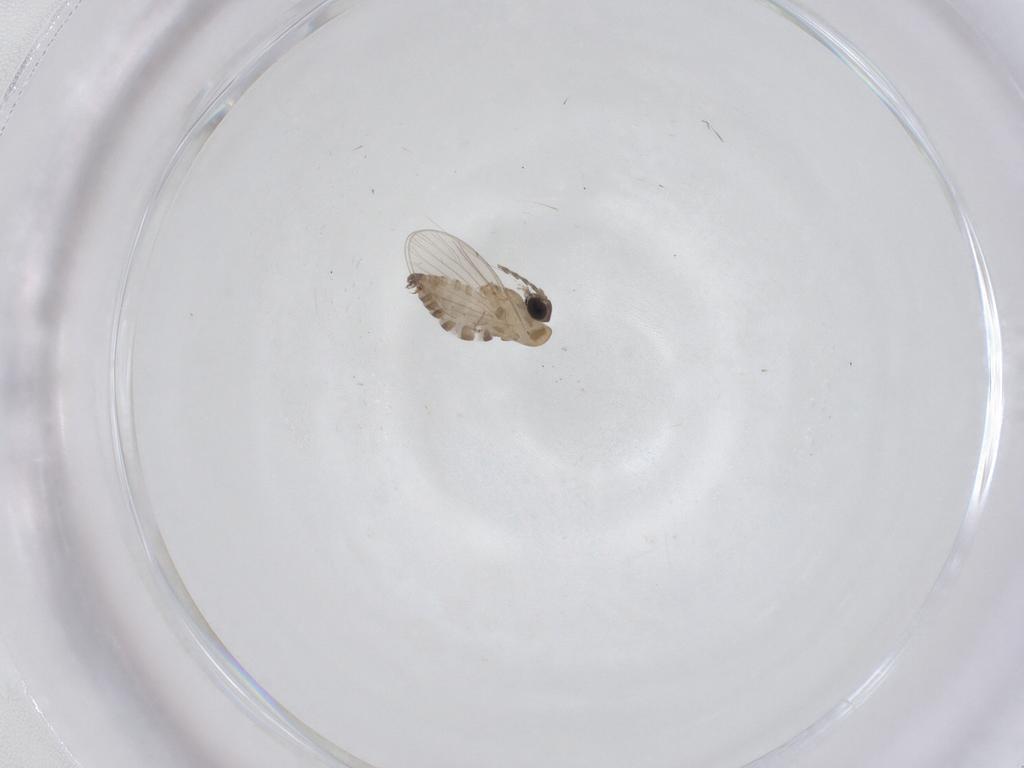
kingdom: Animalia
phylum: Arthropoda
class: Insecta
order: Diptera
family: Psychodidae
